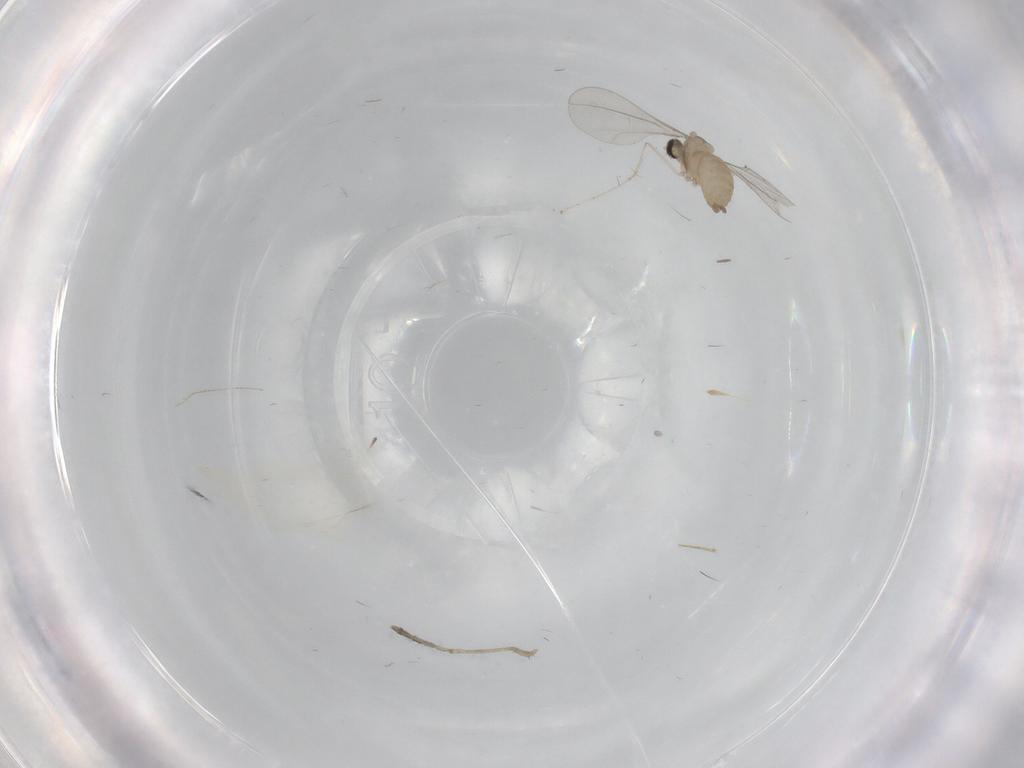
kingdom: Animalia
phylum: Arthropoda
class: Insecta
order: Diptera
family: Cecidomyiidae
